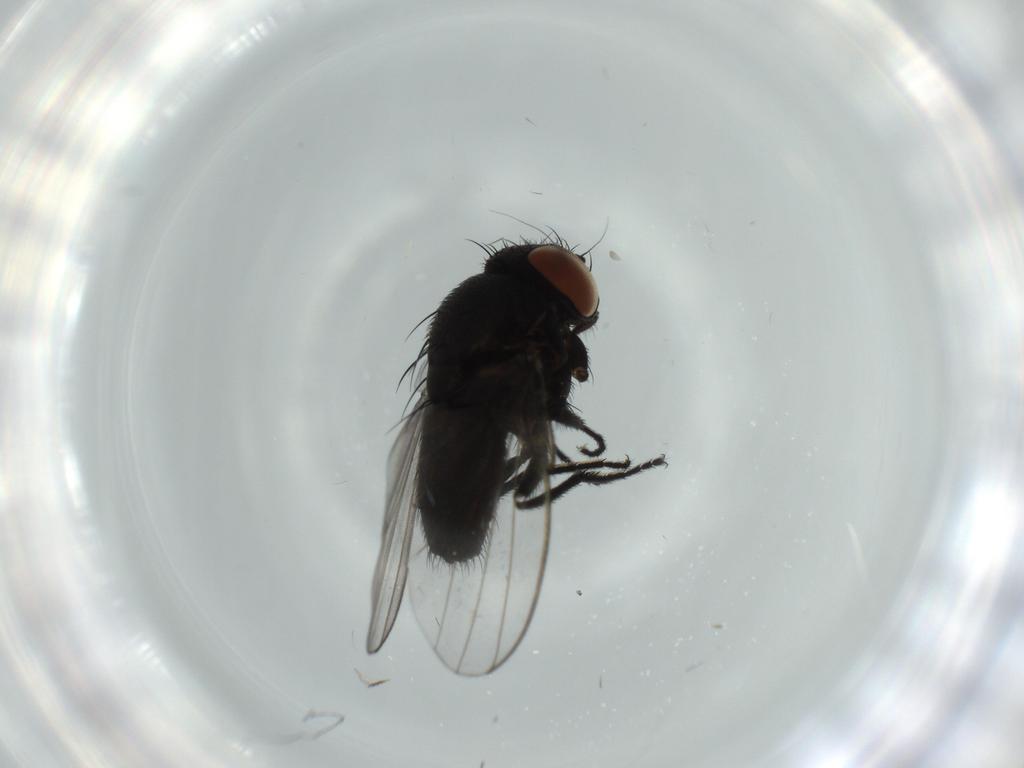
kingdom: Animalia
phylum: Arthropoda
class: Insecta
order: Diptera
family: Milichiidae
